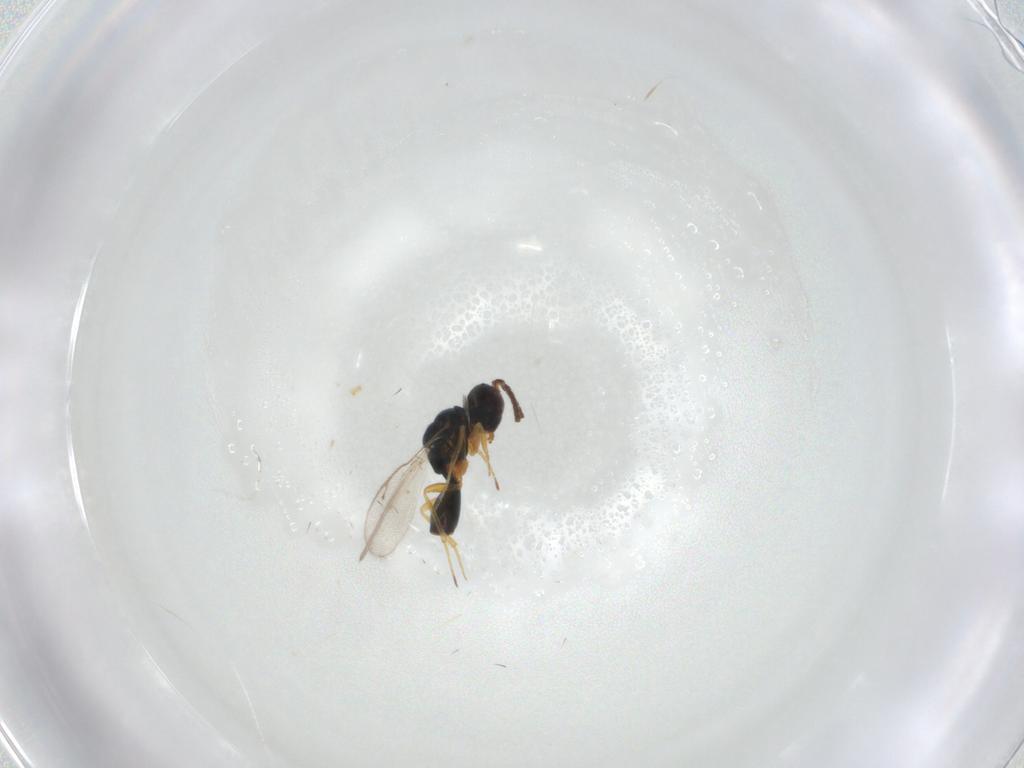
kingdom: Animalia
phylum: Arthropoda
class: Insecta
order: Hymenoptera
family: Pteromalidae
